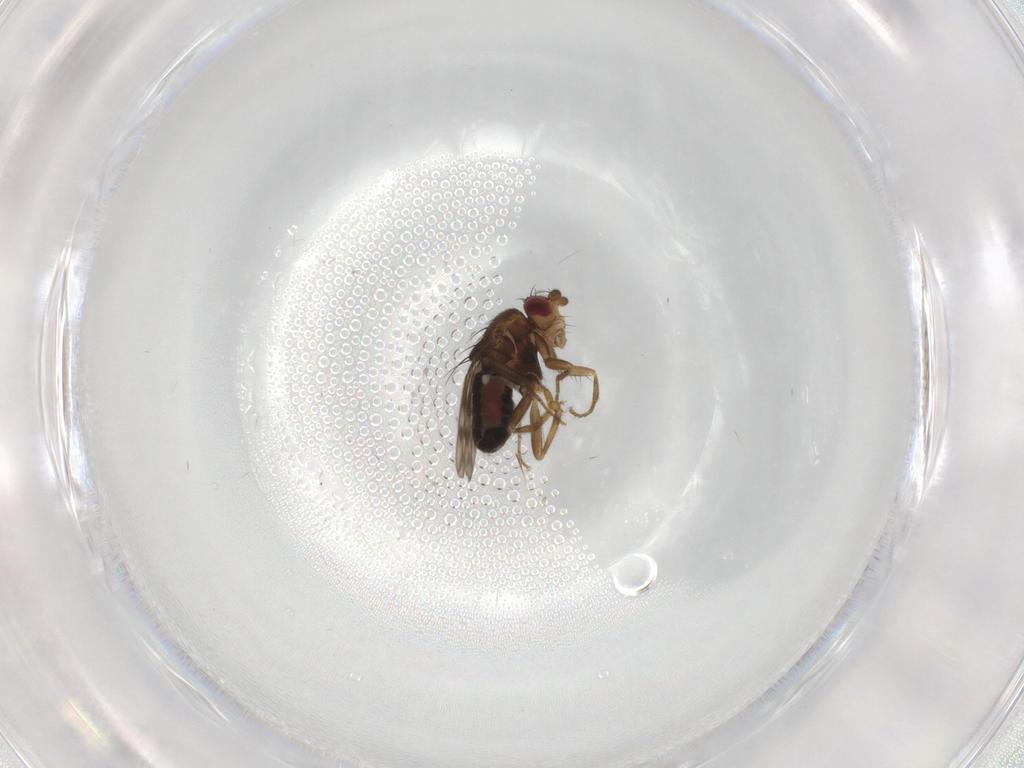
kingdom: Animalia
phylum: Arthropoda
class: Insecta
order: Diptera
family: Sphaeroceridae
